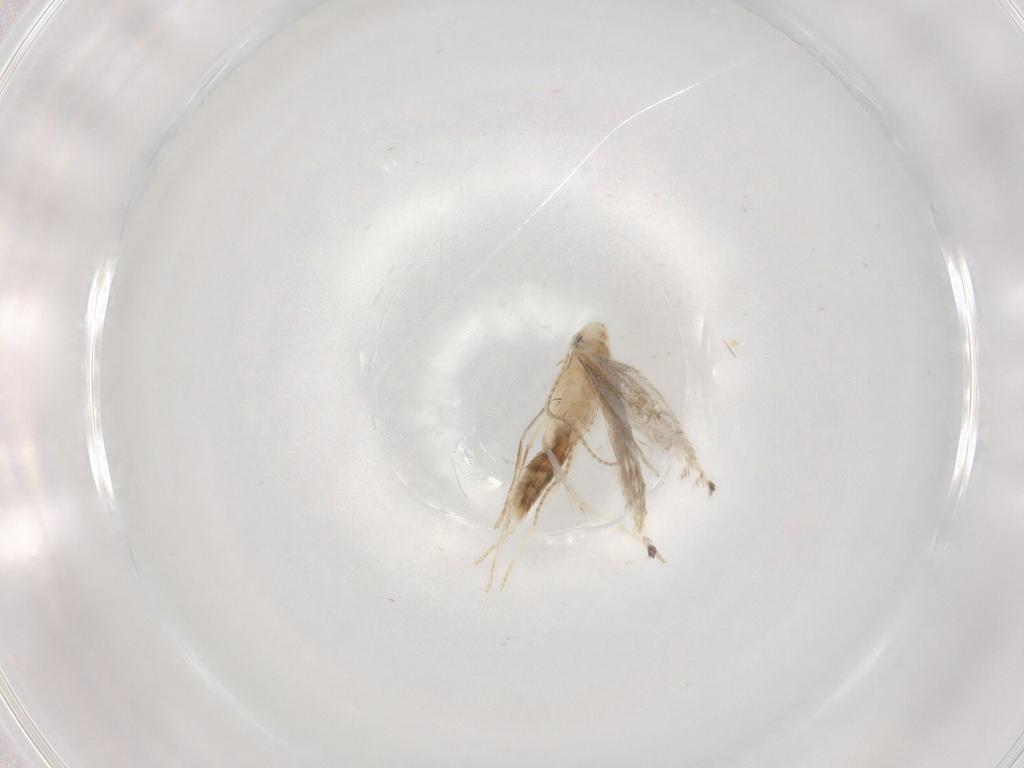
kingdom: Animalia
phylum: Arthropoda
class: Insecta
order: Lepidoptera
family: Gracillariidae
